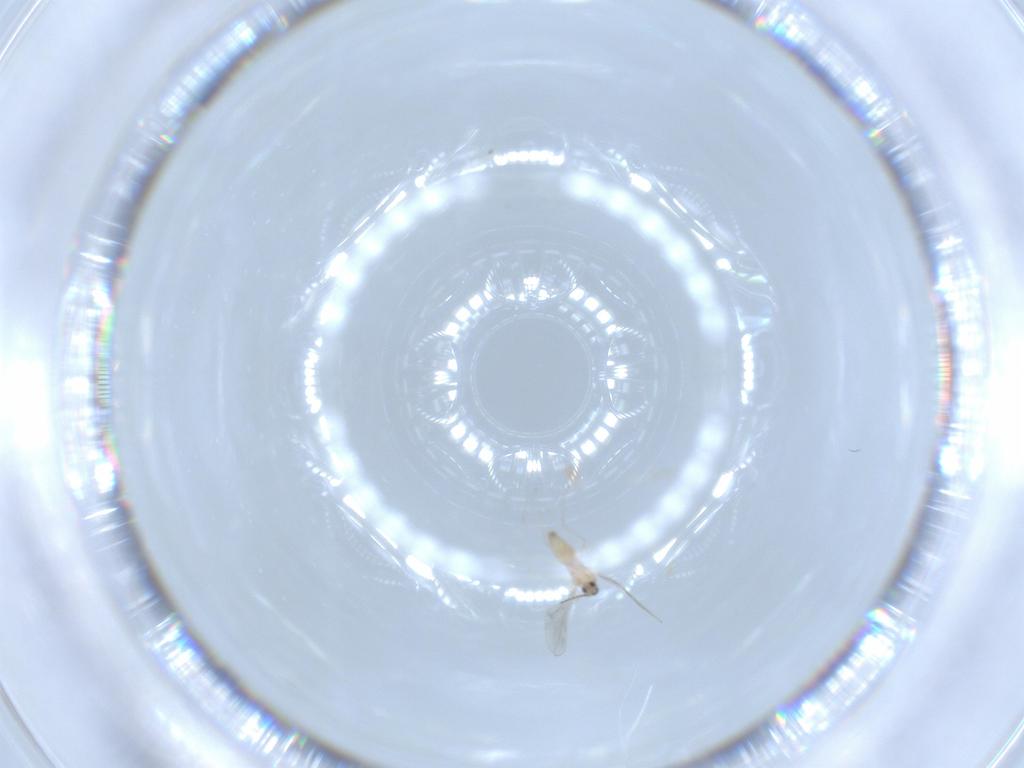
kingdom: Animalia
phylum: Arthropoda
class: Insecta
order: Diptera
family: Cecidomyiidae
